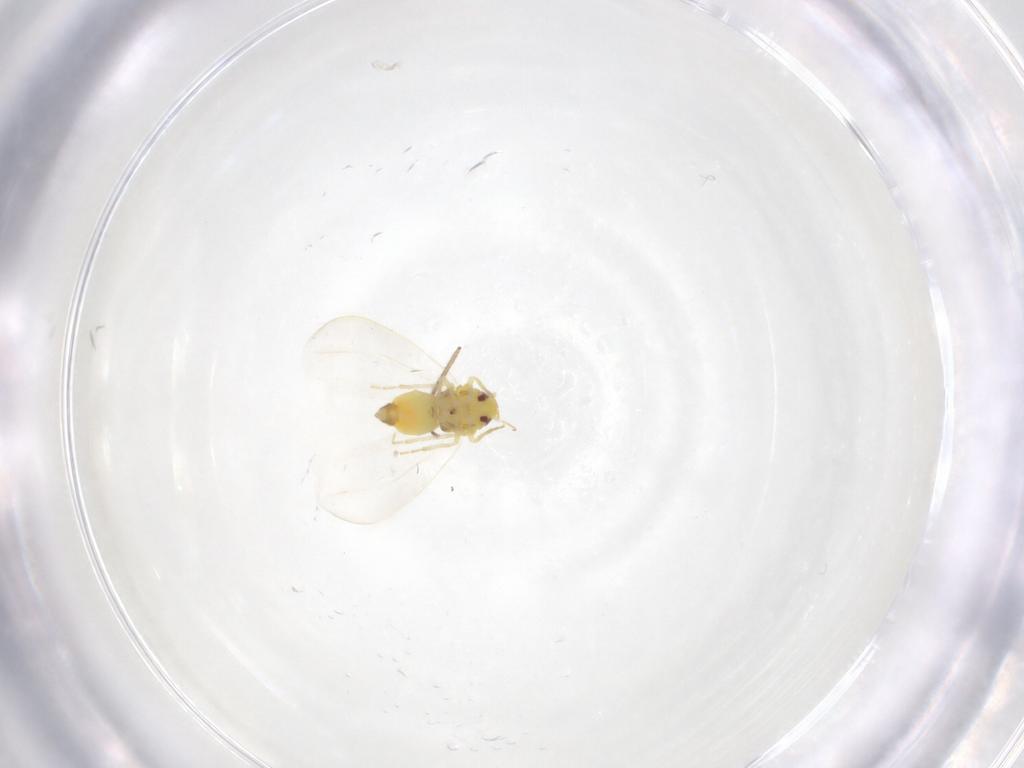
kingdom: Animalia
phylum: Arthropoda
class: Insecta
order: Hemiptera
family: Aleyrodidae
